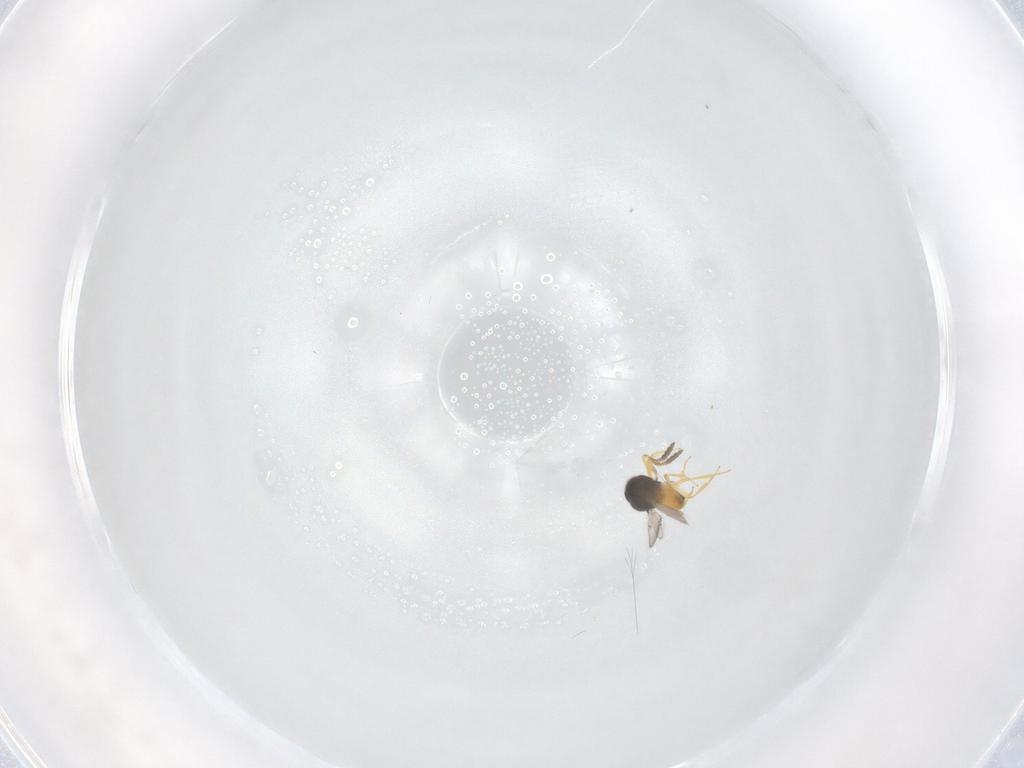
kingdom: Animalia
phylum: Arthropoda
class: Insecta
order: Hymenoptera
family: Scelionidae
